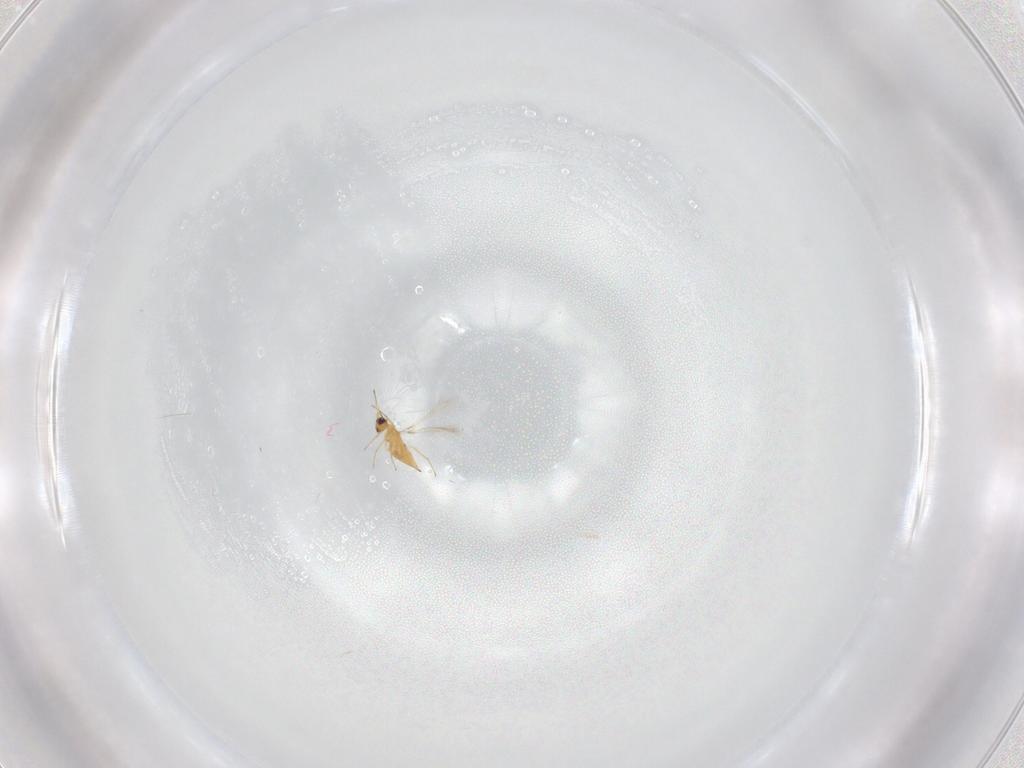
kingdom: Animalia
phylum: Arthropoda
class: Insecta
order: Hymenoptera
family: Mymaridae
